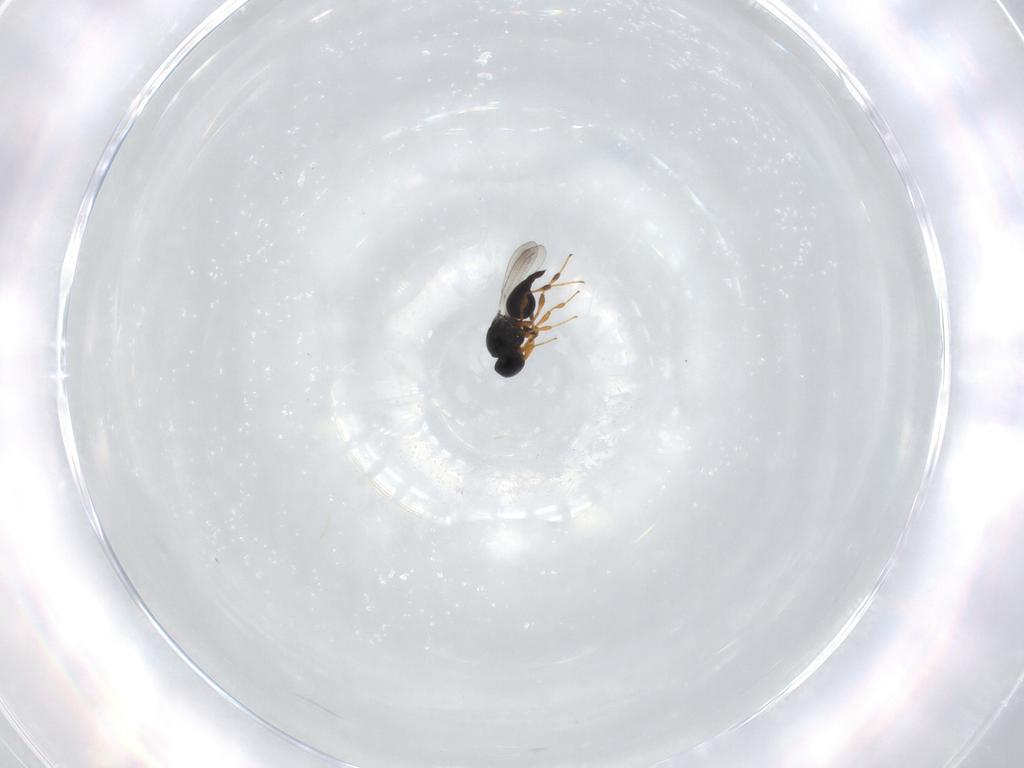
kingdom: Animalia
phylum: Arthropoda
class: Insecta
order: Hymenoptera
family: Platygastridae
